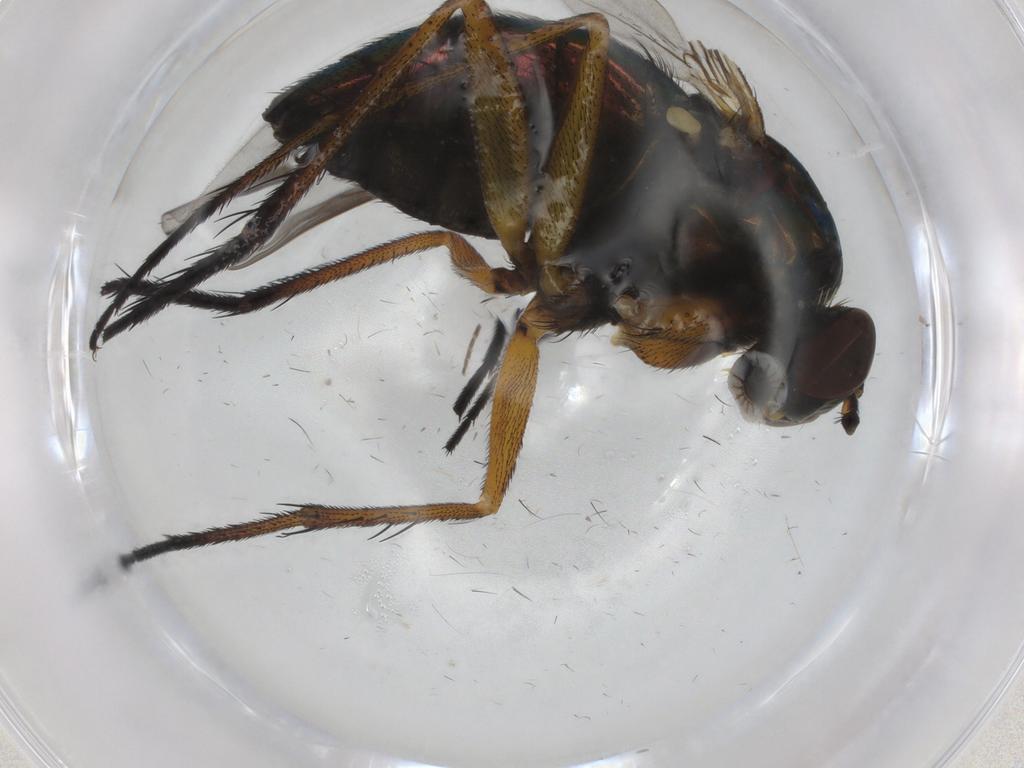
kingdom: Animalia
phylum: Arthropoda
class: Insecta
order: Diptera
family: Dolichopodidae
